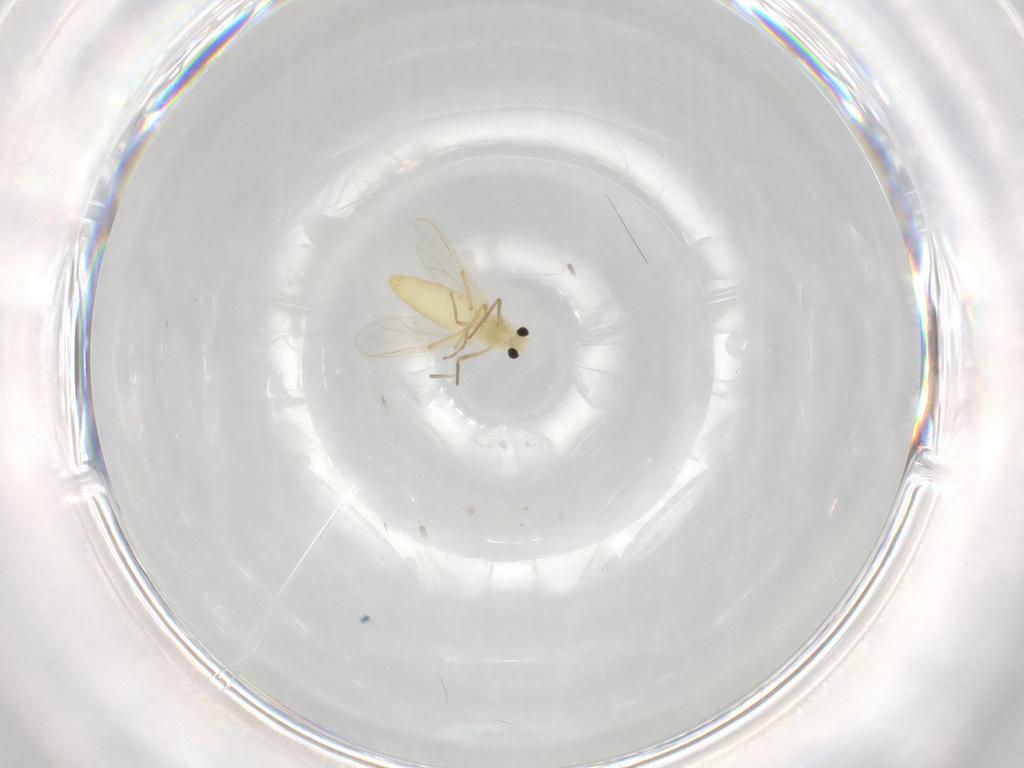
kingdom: Animalia
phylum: Arthropoda
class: Insecta
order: Diptera
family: Chironomidae
